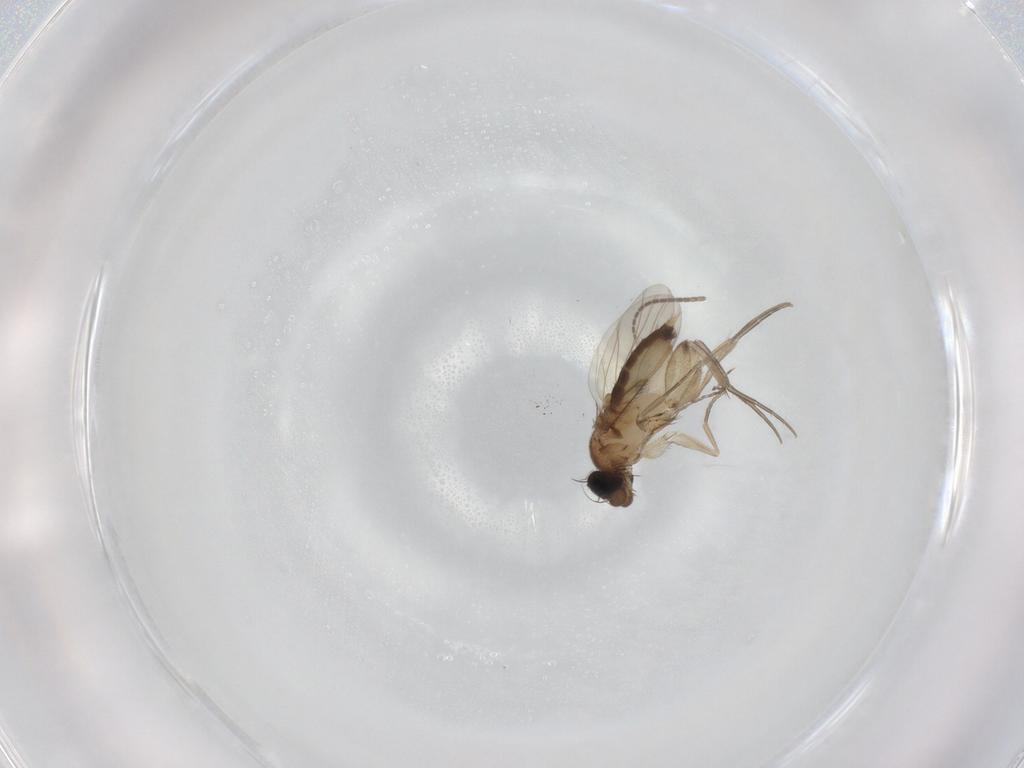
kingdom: Animalia
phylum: Arthropoda
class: Insecta
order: Diptera
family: Phoridae
